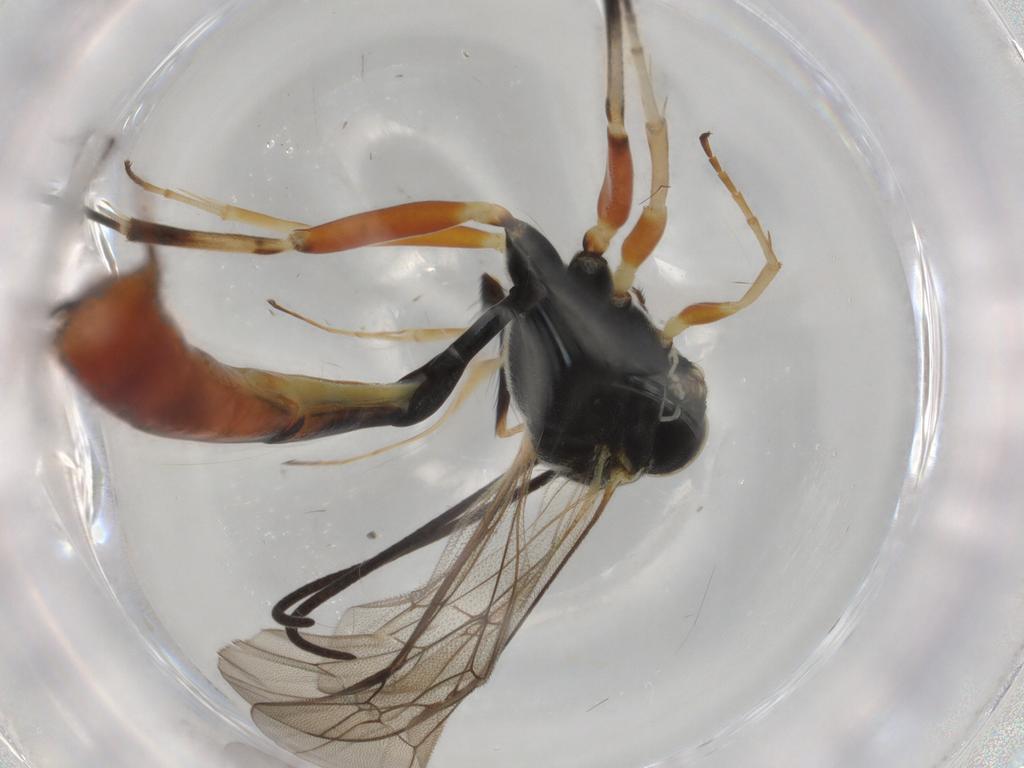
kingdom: Animalia
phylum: Arthropoda
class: Insecta
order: Hymenoptera
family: Ichneumonidae
